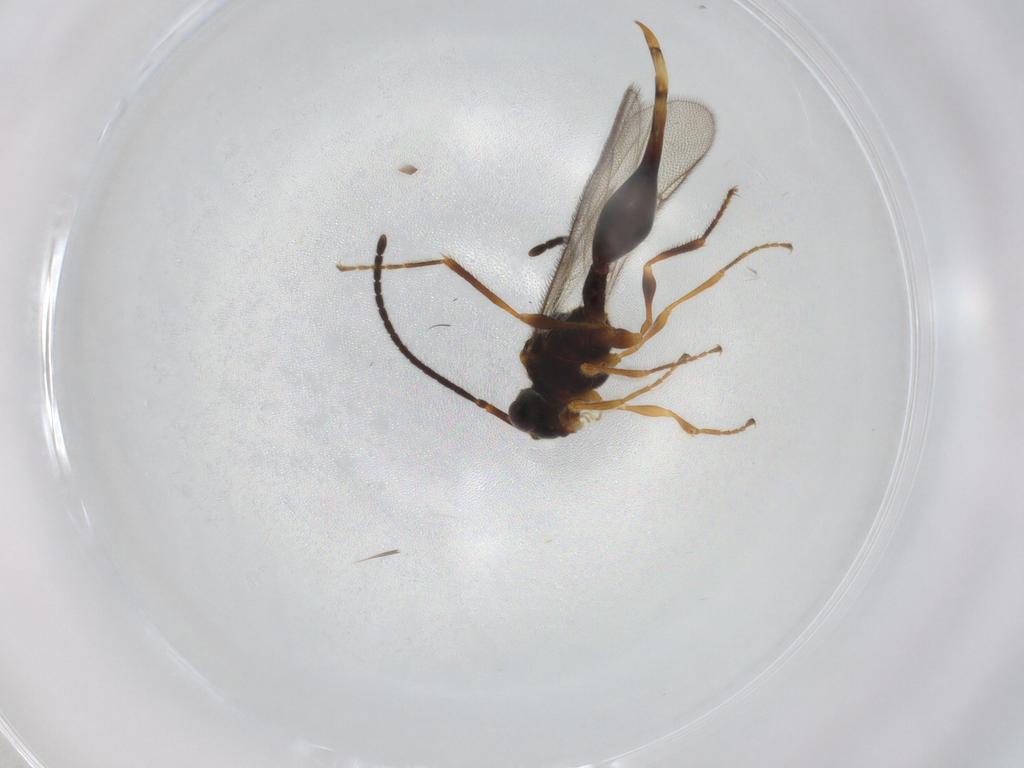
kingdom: Animalia
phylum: Arthropoda
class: Insecta
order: Hymenoptera
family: Diapriidae
